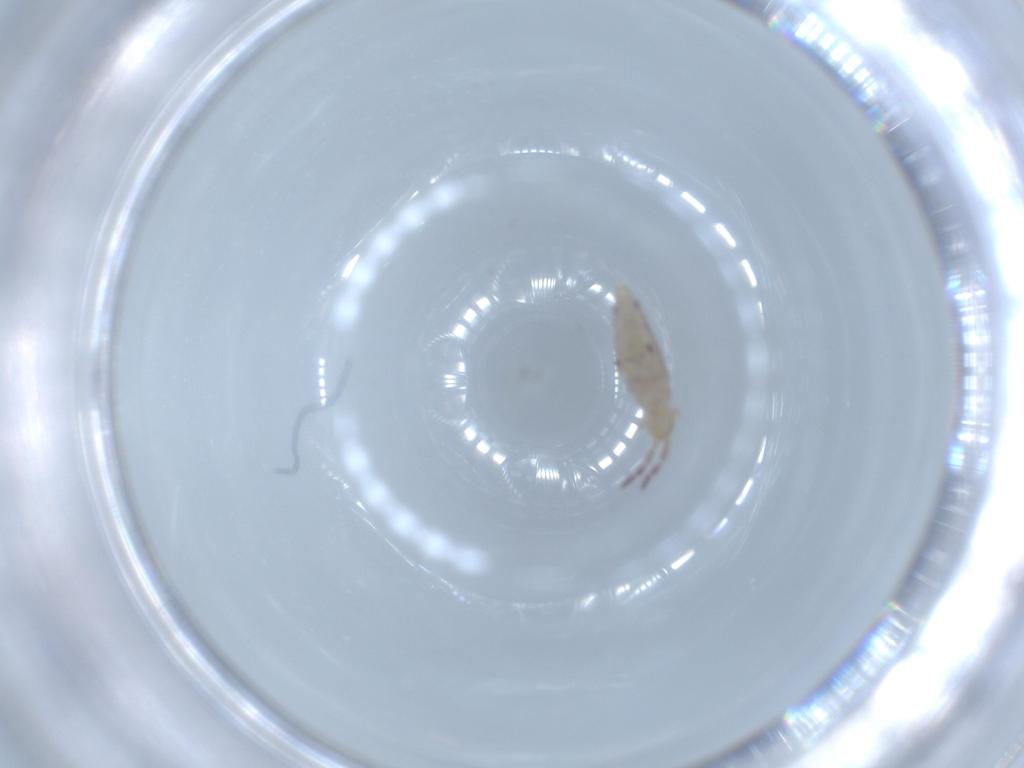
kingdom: Animalia
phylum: Arthropoda
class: Collembola
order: Entomobryomorpha
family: Entomobryidae
